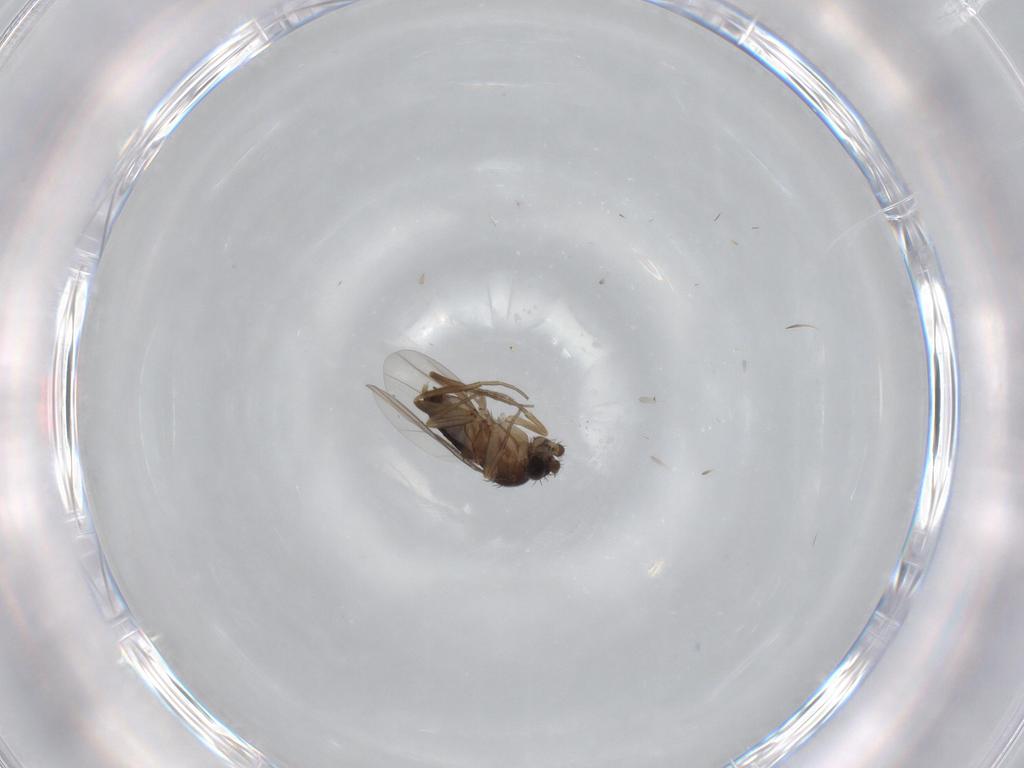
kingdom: Animalia
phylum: Arthropoda
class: Insecta
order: Diptera
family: Phoridae
